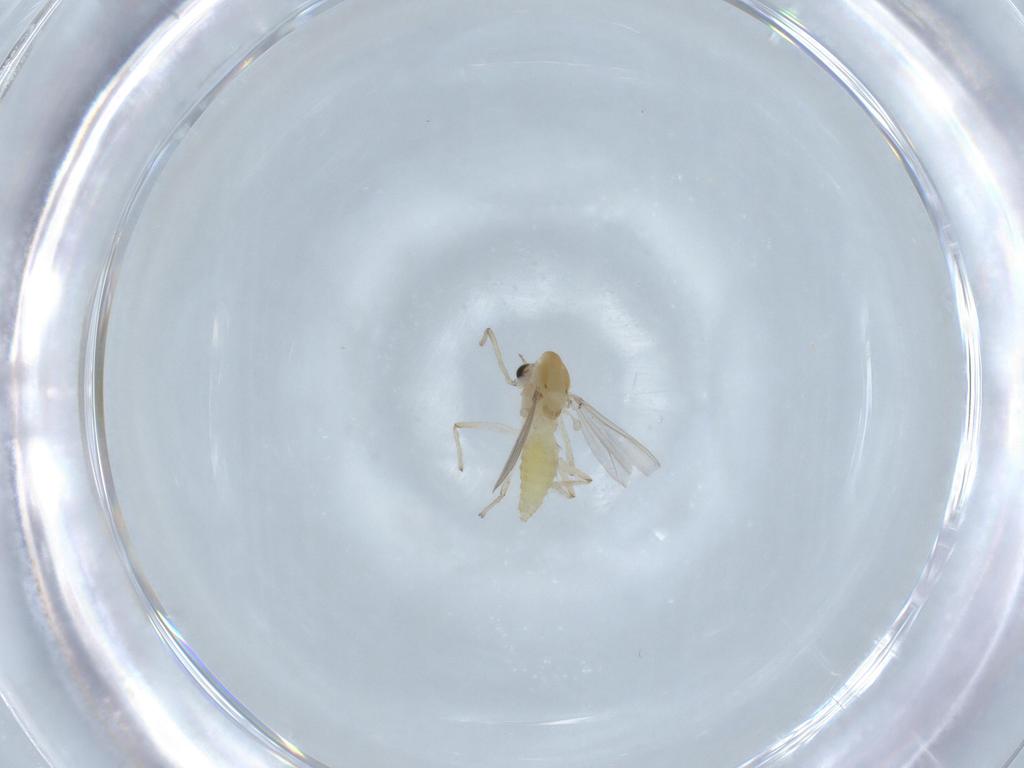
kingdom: Animalia
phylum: Arthropoda
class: Insecta
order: Diptera
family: Chironomidae
